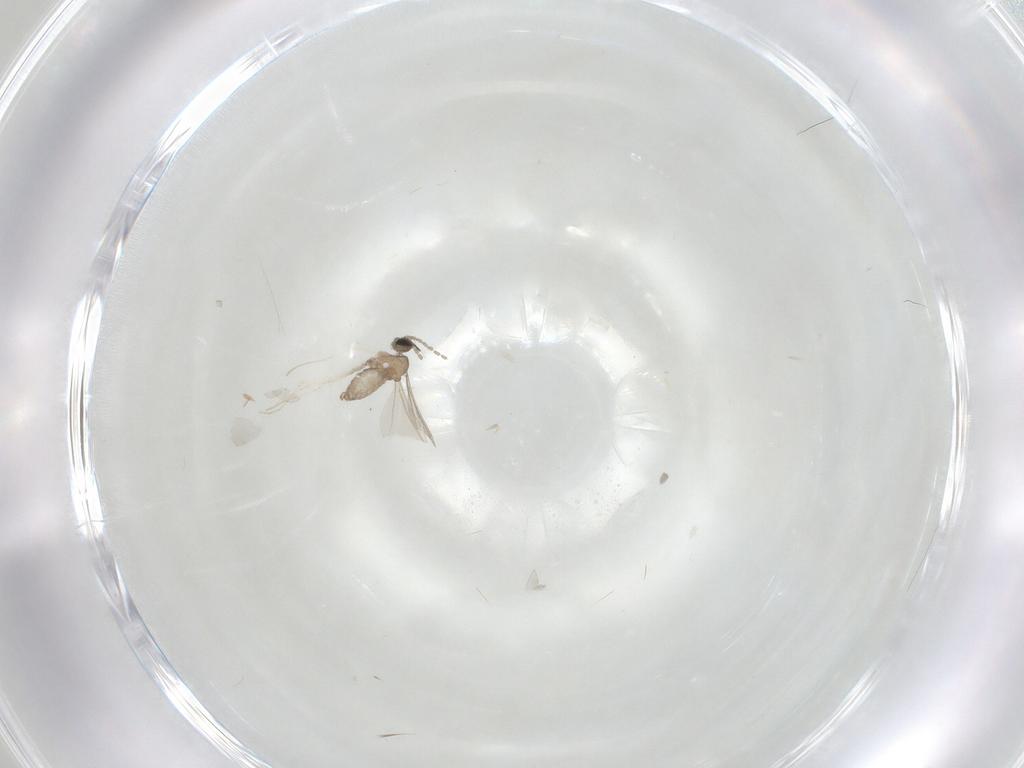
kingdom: Animalia
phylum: Arthropoda
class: Insecta
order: Diptera
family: Cecidomyiidae
